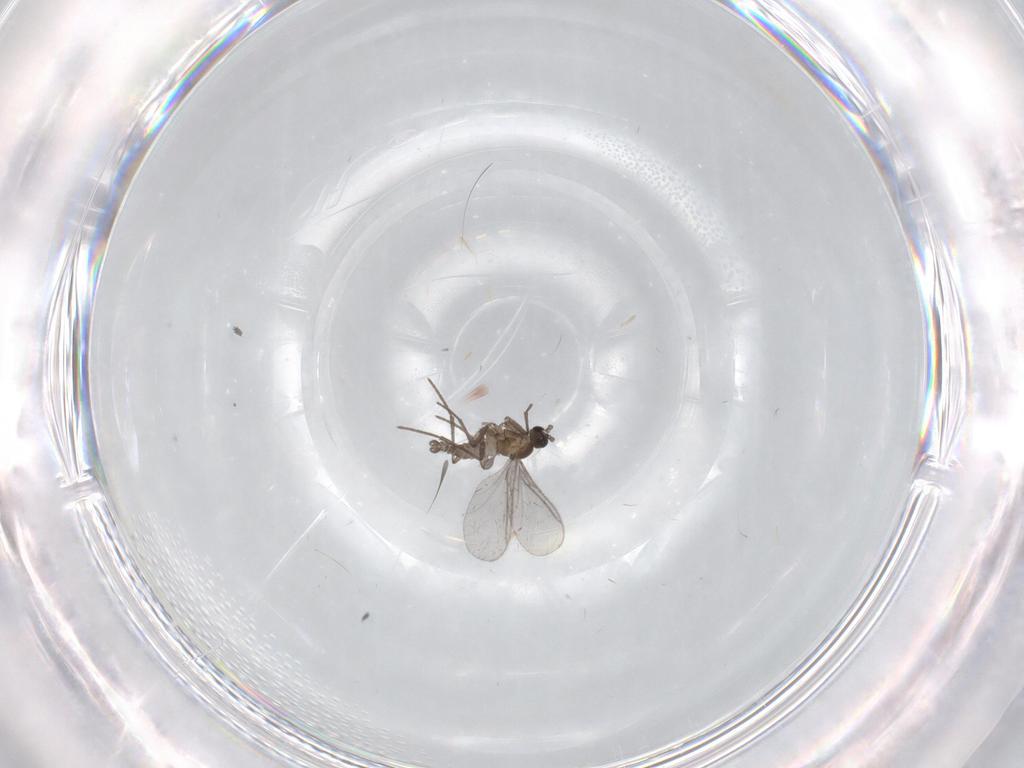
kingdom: Animalia
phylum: Arthropoda
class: Insecta
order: Diptera
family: Sciaridae
